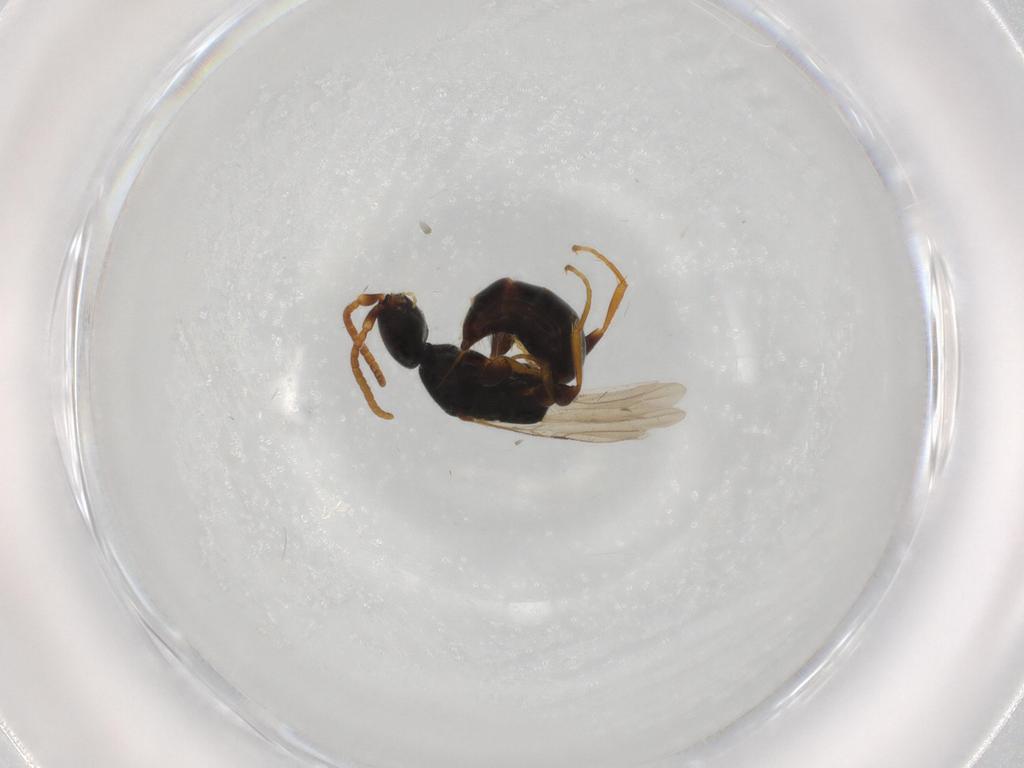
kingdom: Animalia
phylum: Arthropoda
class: Insecta
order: Hymenoptera
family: Bethylidae
